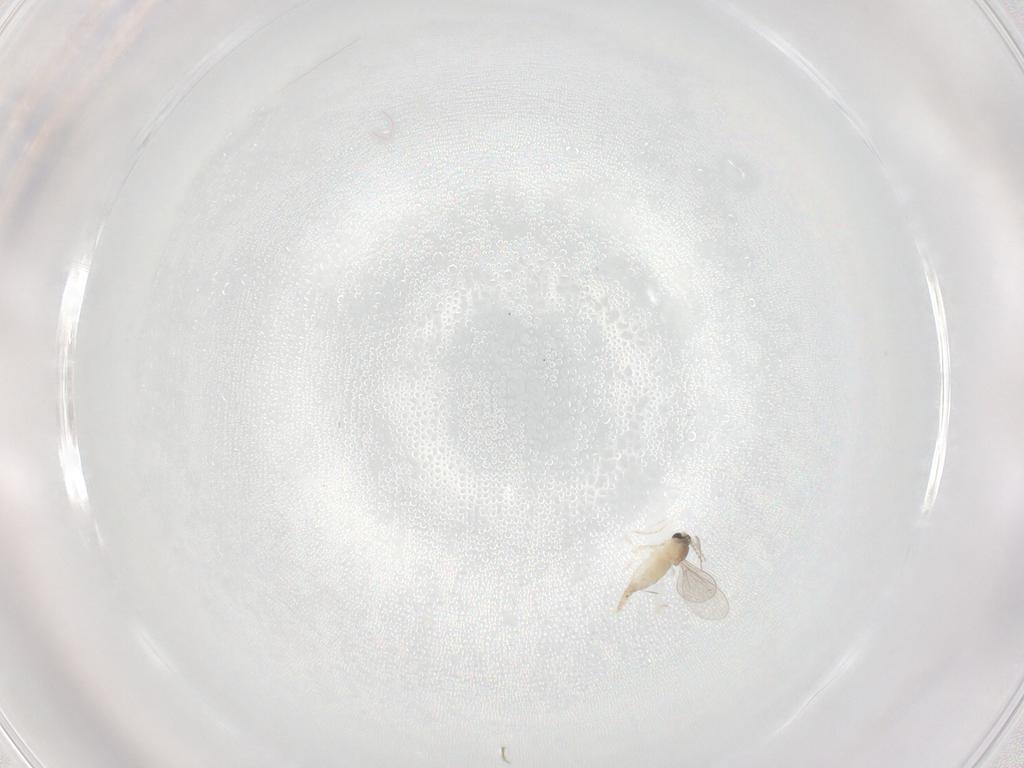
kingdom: Animalia
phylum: Arthropoda
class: Insecta
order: Diptera
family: Cecidomyiidae
